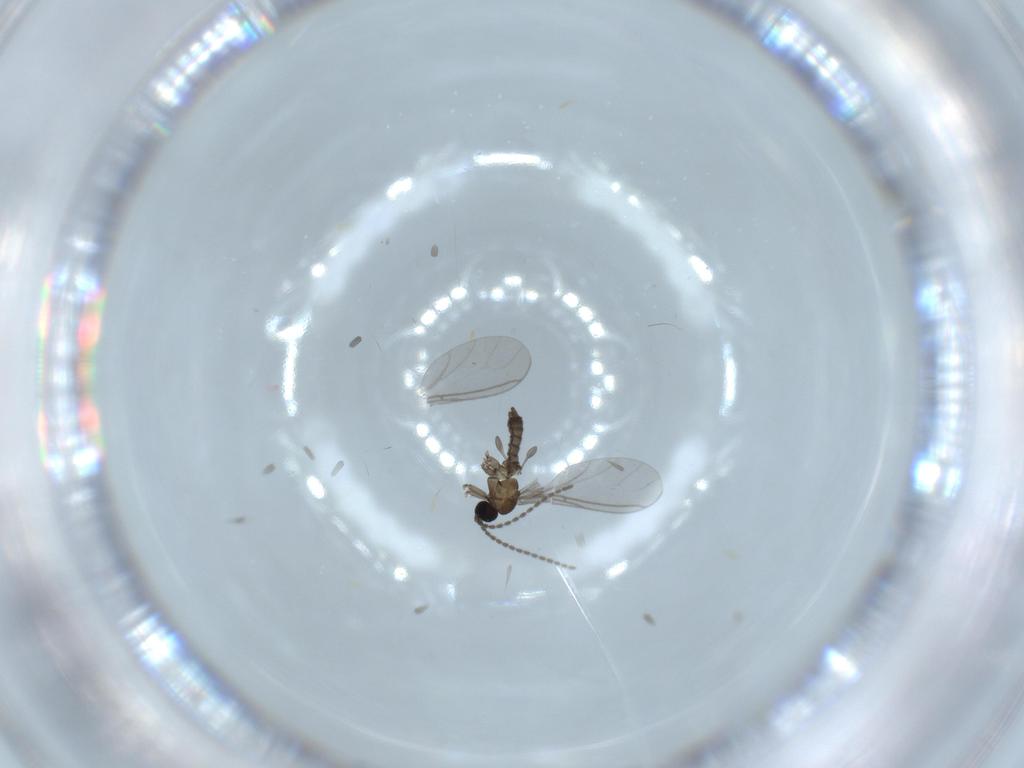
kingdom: Animalia
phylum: Arthropoda
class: Insecta
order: Diptera
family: Ceratopogonidae
